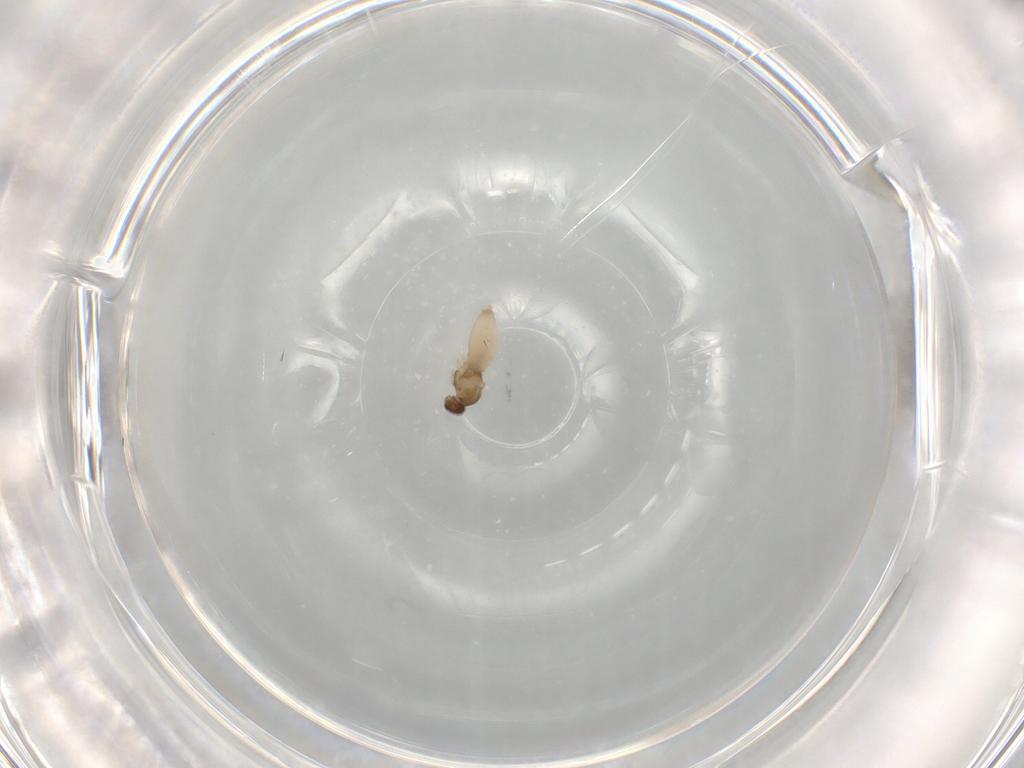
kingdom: Animalia
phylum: Arthropoda
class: Insecta
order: Diptera
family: Cecidomyiidae
